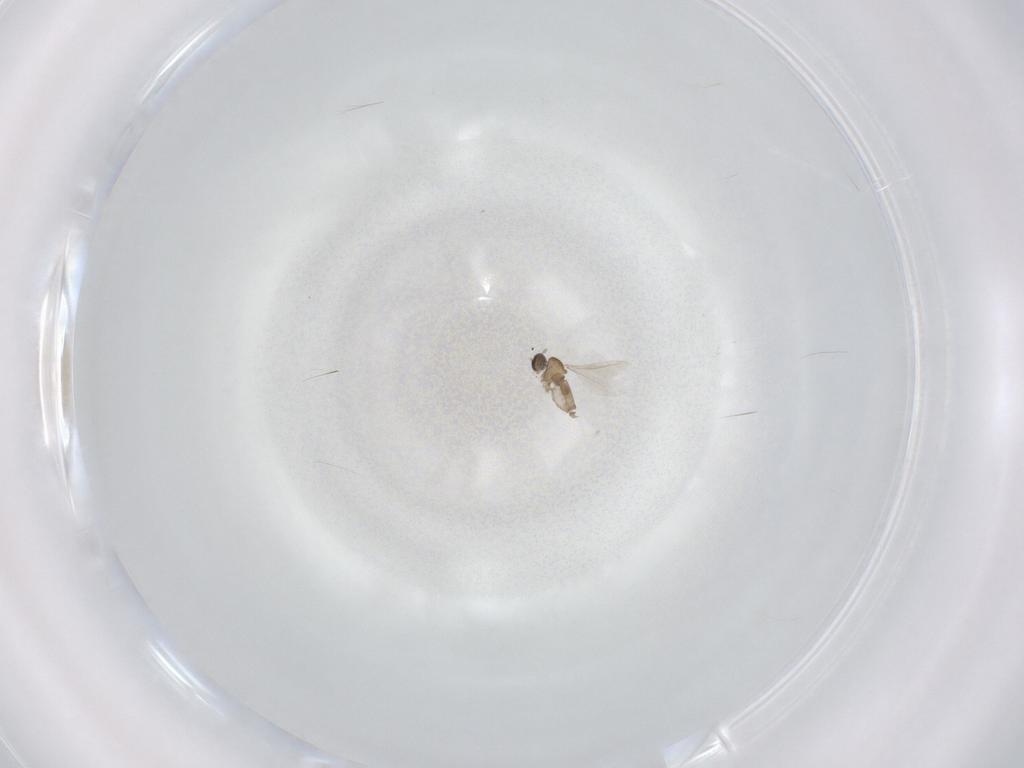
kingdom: Animalia
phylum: Arthropoda
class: Insecta
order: Diptera
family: Cecidomyiidae
